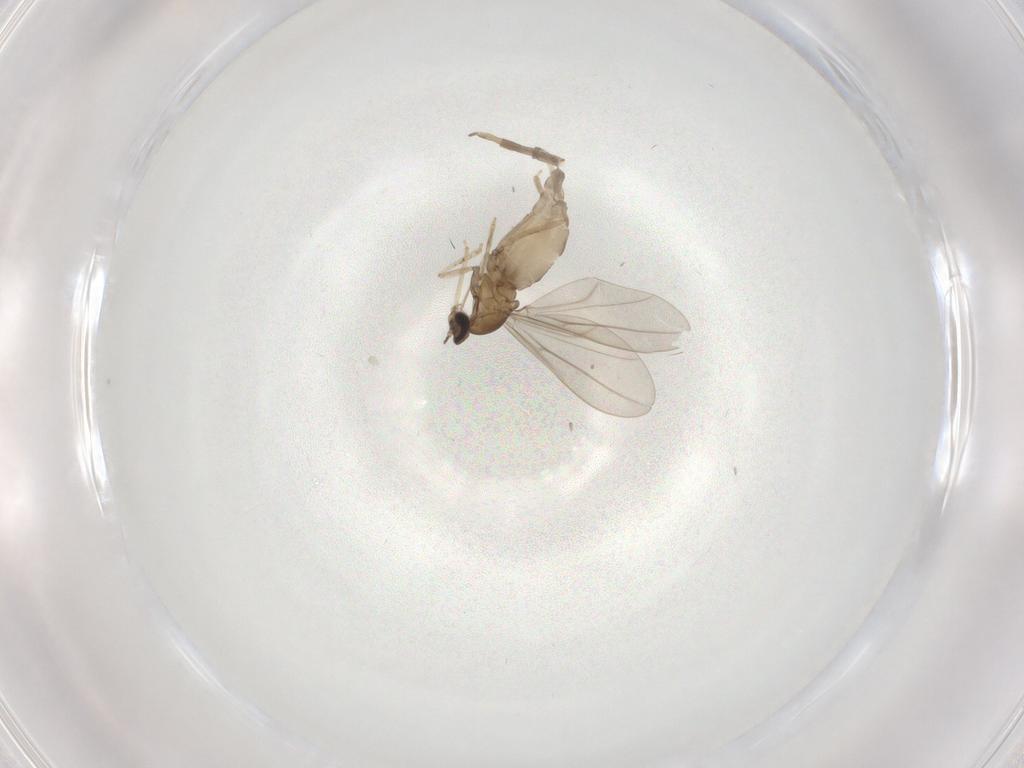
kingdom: Animalia
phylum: Arthropoda
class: Insecta
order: Diptera
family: Cecidomyiidae
